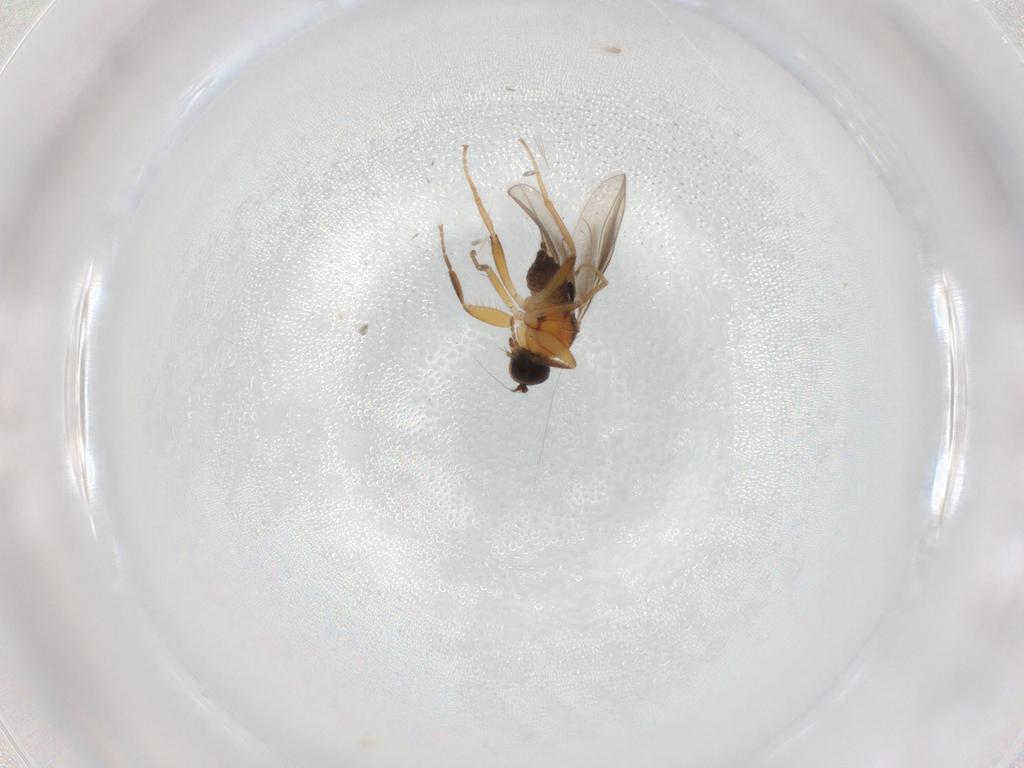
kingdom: Animalia
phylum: Arthropoda
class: Insecta
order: Diptera
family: Hybotidae
